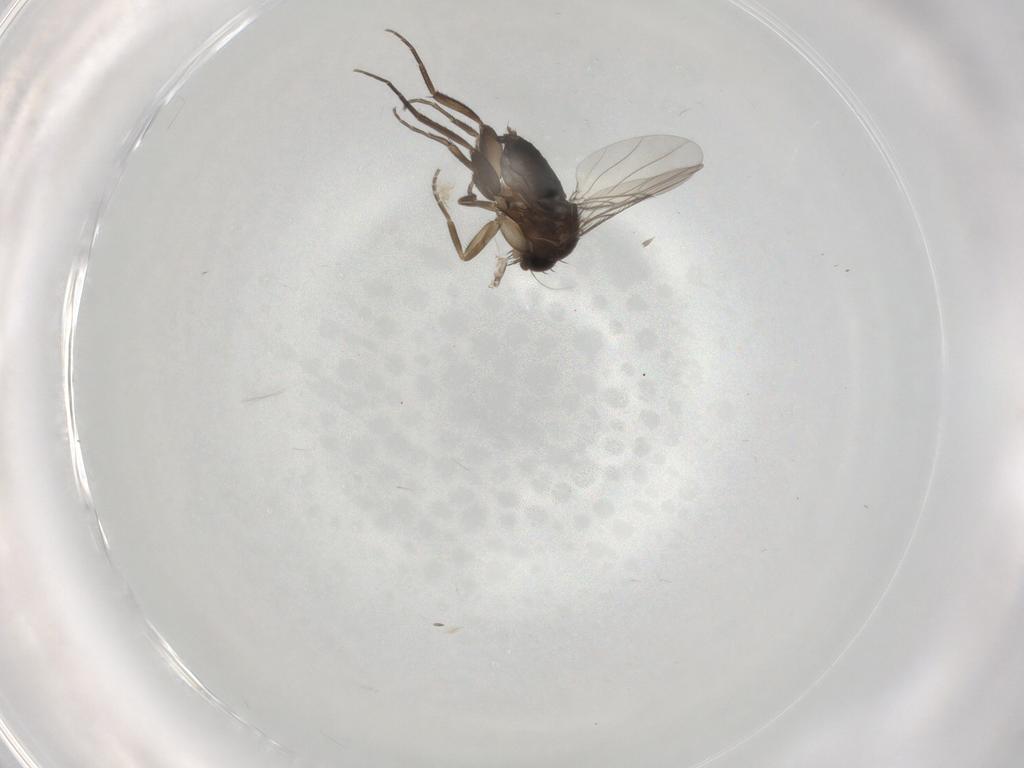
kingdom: Animalia
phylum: Arthropoda
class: Insecta
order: Diptera
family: Phoridae
